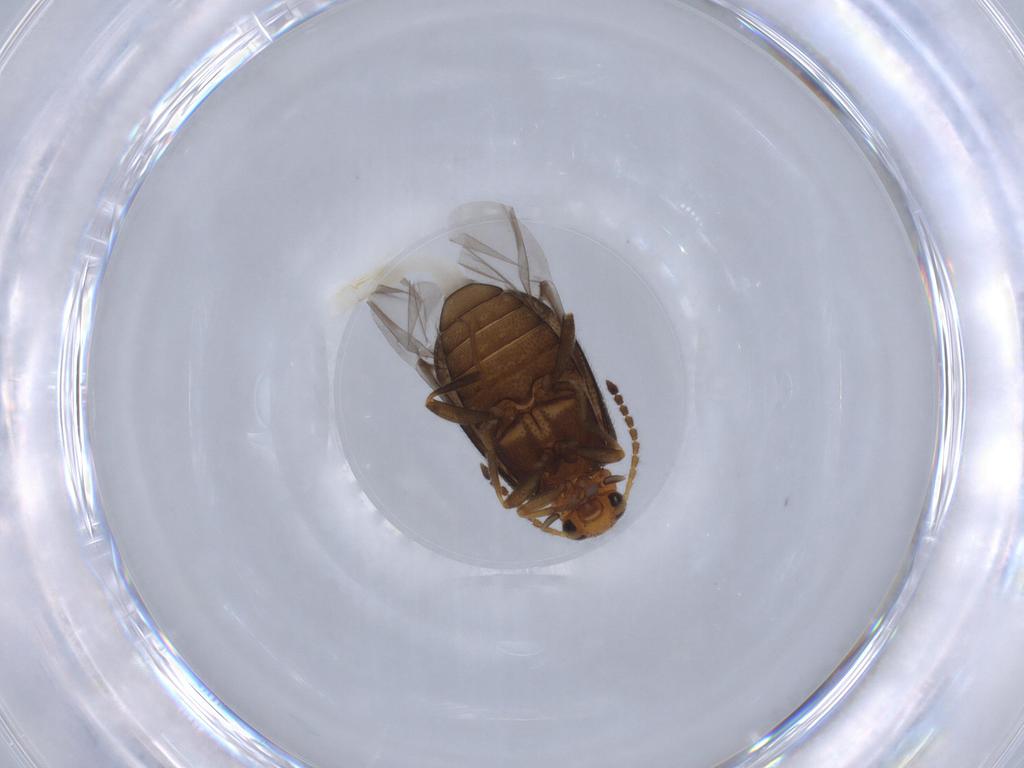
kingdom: Animalia
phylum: Arthropoda
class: Insecta
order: Coleoptera
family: Aderidae
